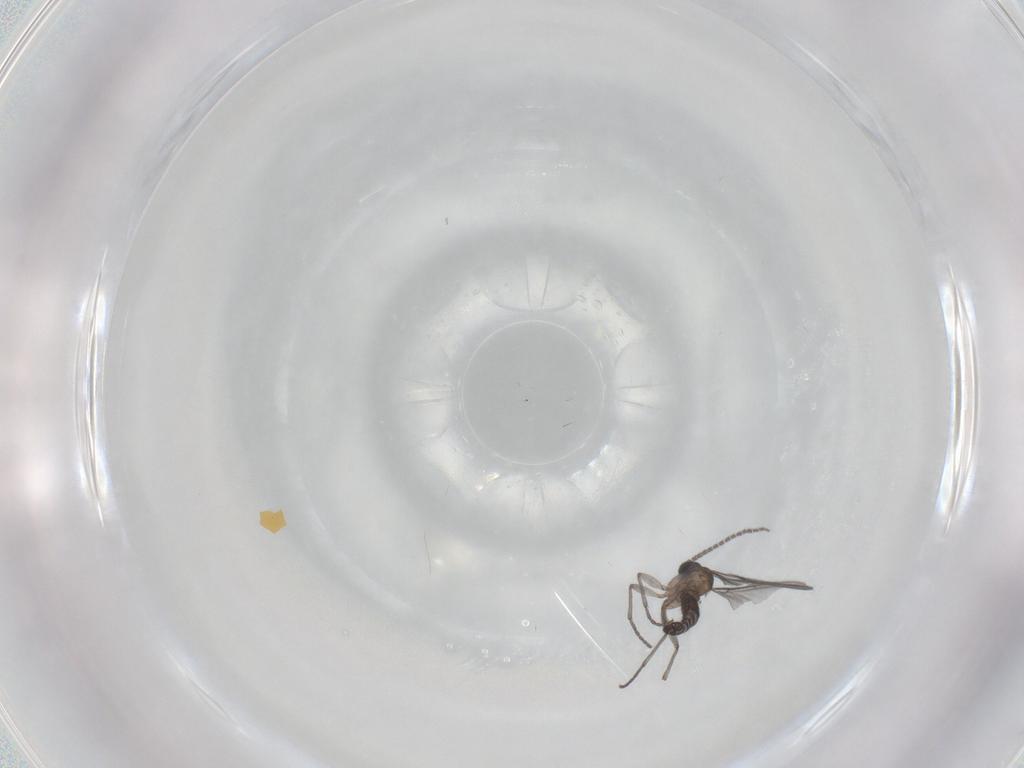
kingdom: Animalia
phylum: Arthropoda
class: Insecta
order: Diptera
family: Sciaridae
